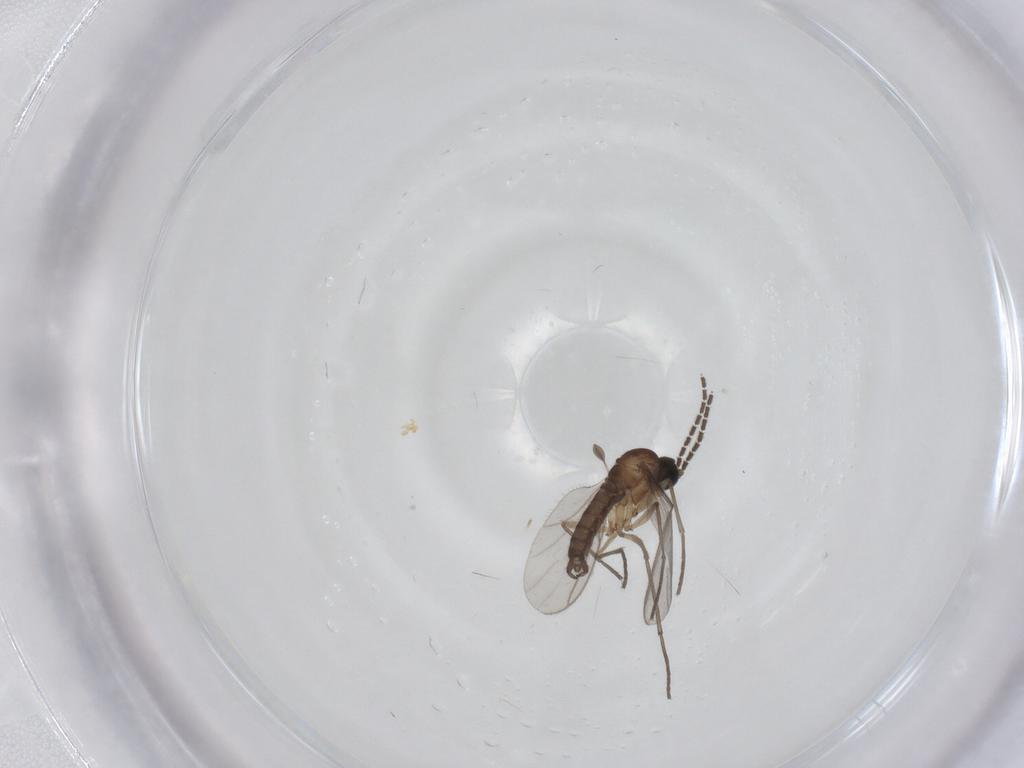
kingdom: Animalia
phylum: Arthropoda
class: Insecta
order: Diptera
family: Sciaridae
